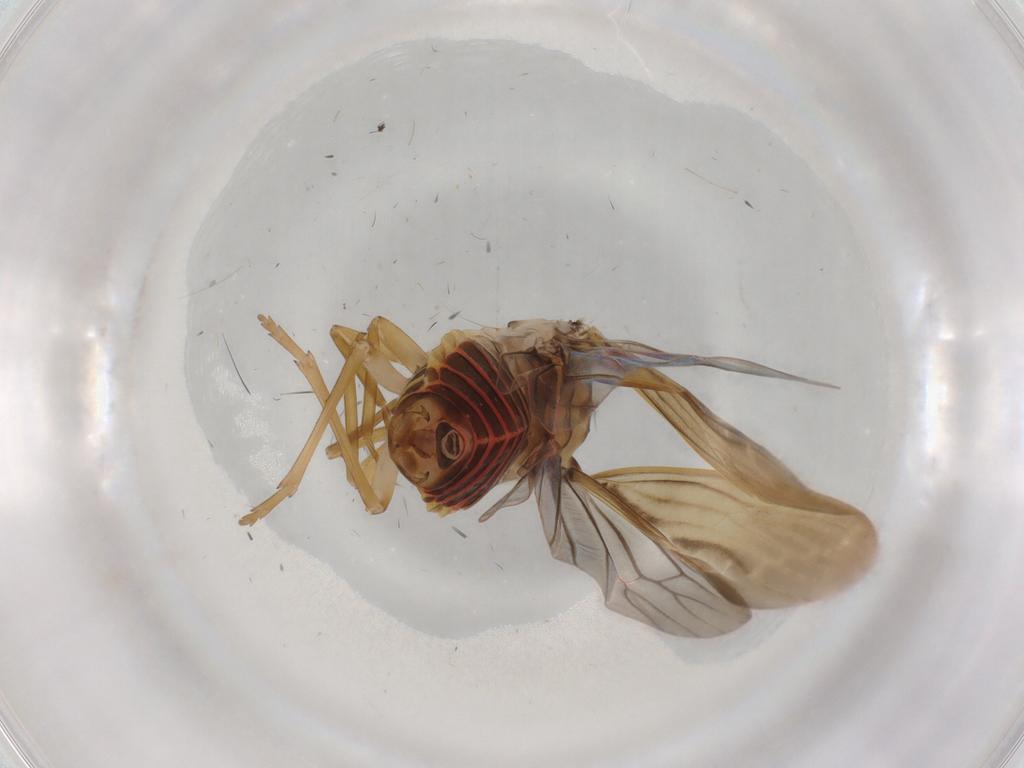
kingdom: Animalia
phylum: Arthropoda
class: Insecta
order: Hemiptera
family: Achilidae
